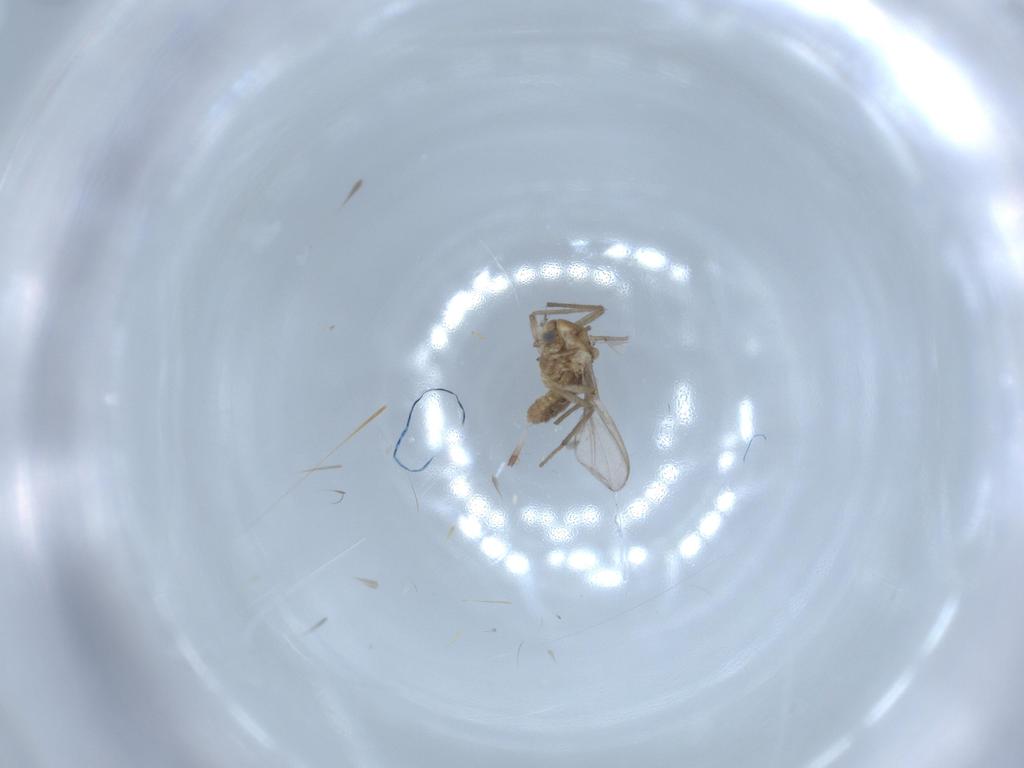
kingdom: Animalia
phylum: Arthropoda
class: Insecta
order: Diptera
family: Chironomidae
